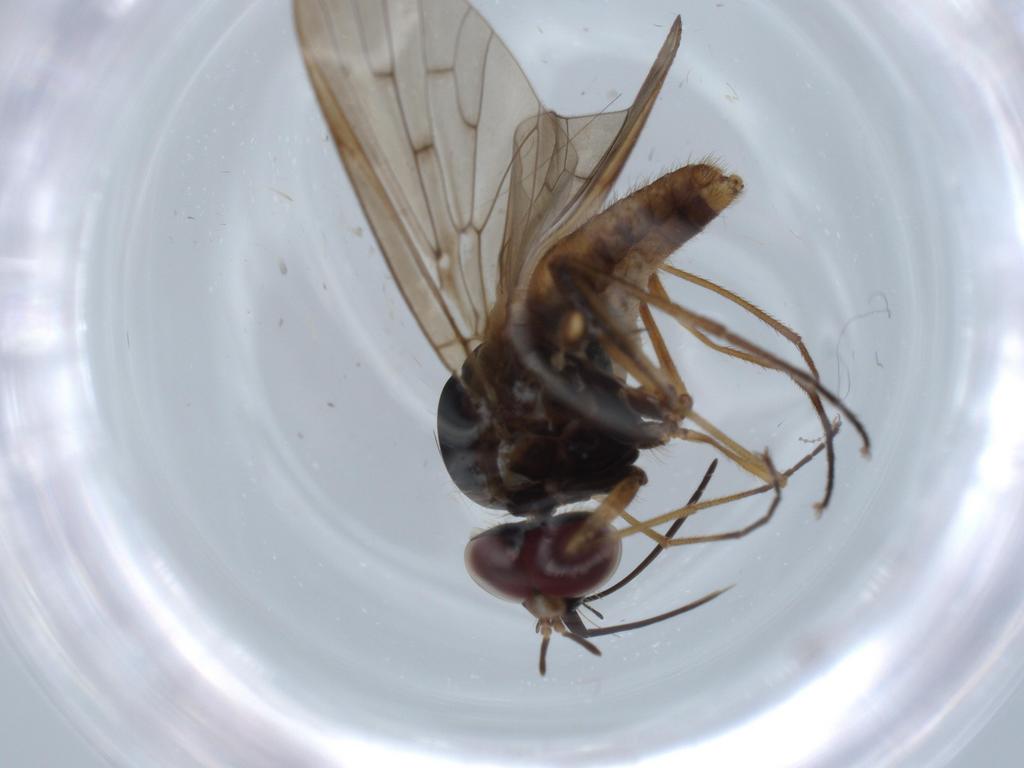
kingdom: Animalia
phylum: Arthropoda
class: Insecta
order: Diptera
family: Bombyliidae
